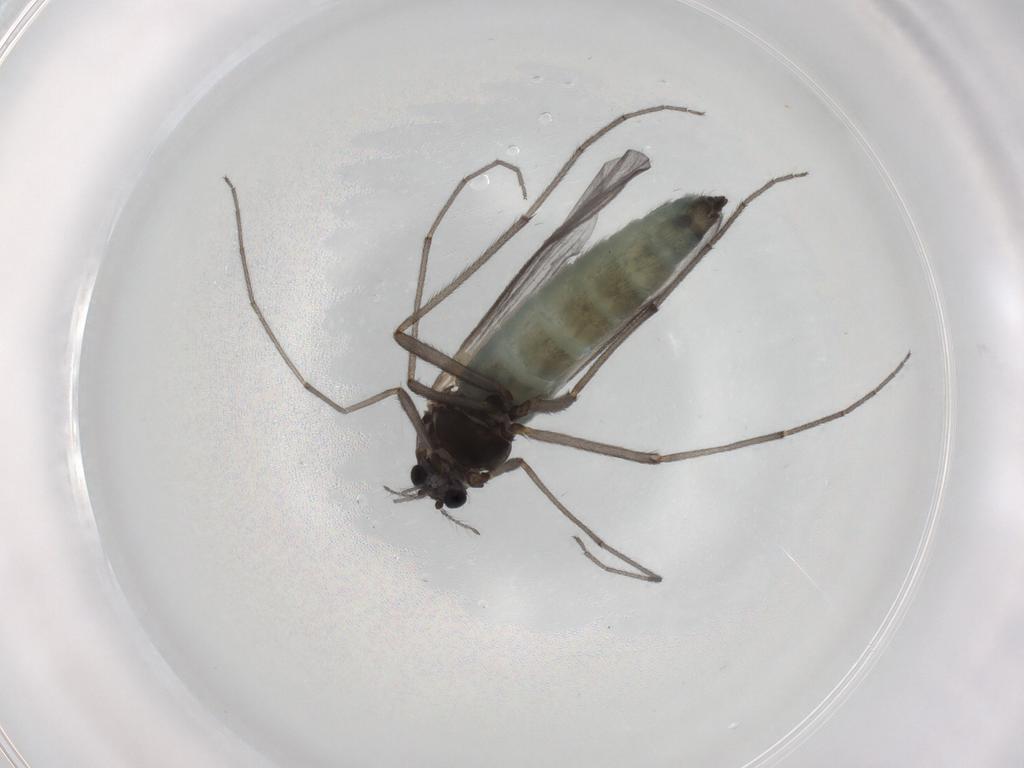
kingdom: Animalia
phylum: Arthropoda
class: Insecta
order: Diptera
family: Chironomidae
